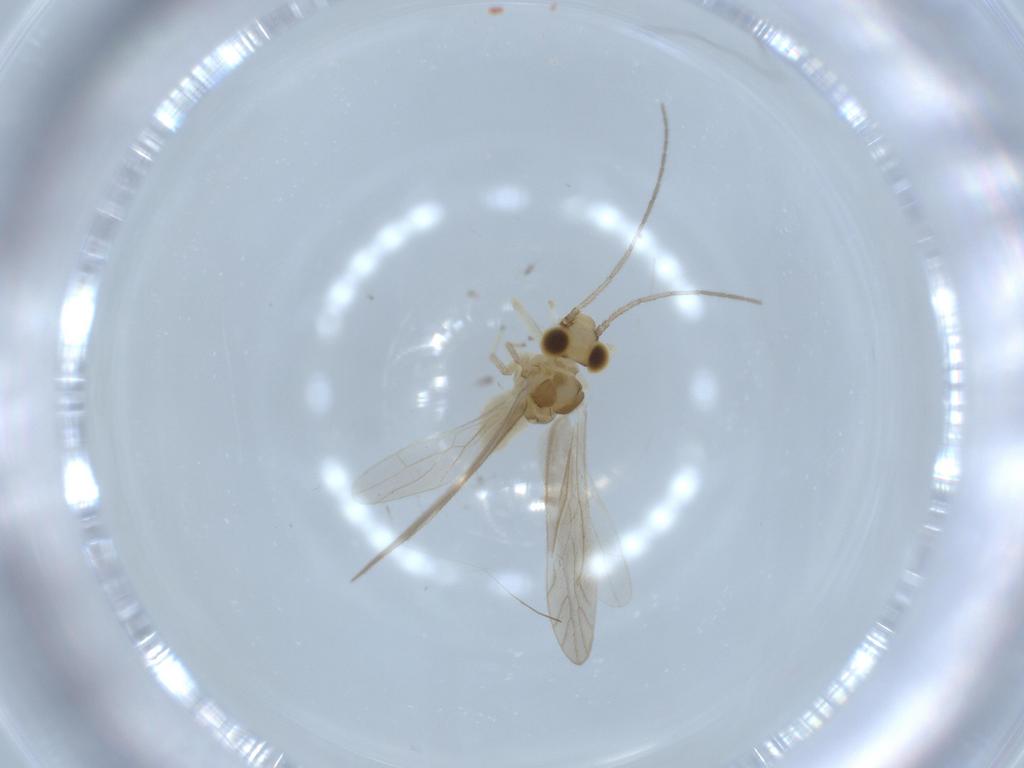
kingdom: Animalia
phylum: Arthropoda
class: Insecta
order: Psocodea
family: Caeciliusidae
